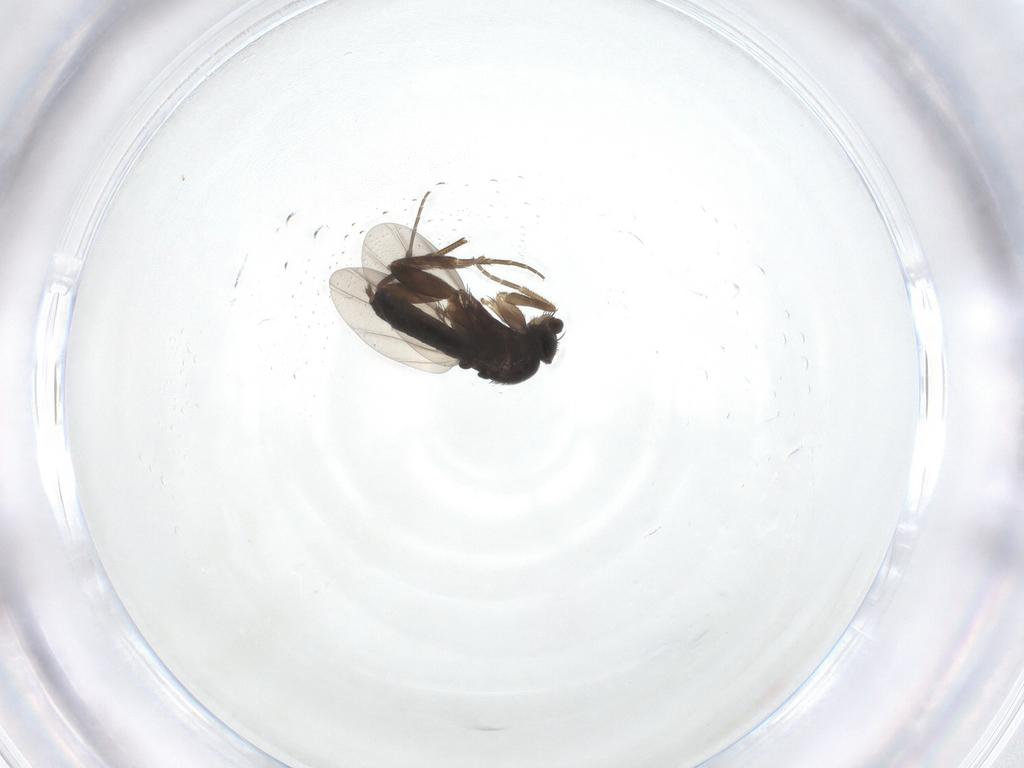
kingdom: Animalia
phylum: Arthropoda
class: Insecta
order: Diptera
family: Phoridae
